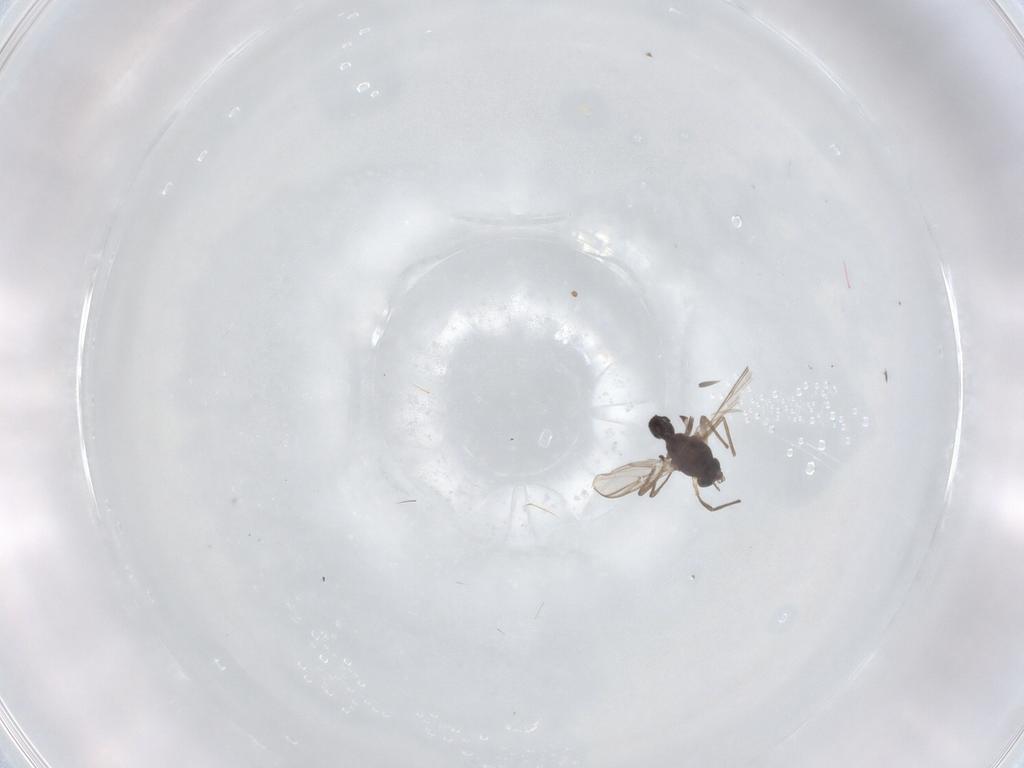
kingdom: Animalia
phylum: Arthropoda
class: Insecta
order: Diptera
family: Chironomidae
